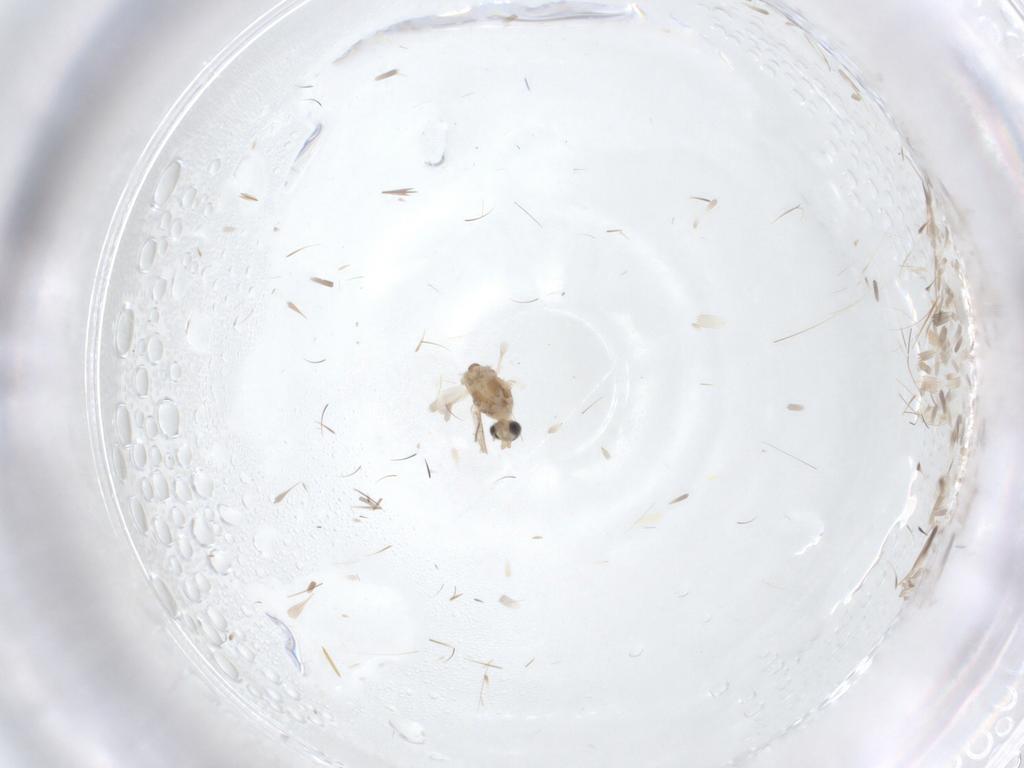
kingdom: Animalia
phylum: Arthropoda
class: Insecta
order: Diptera
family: Cecidomyiidae
